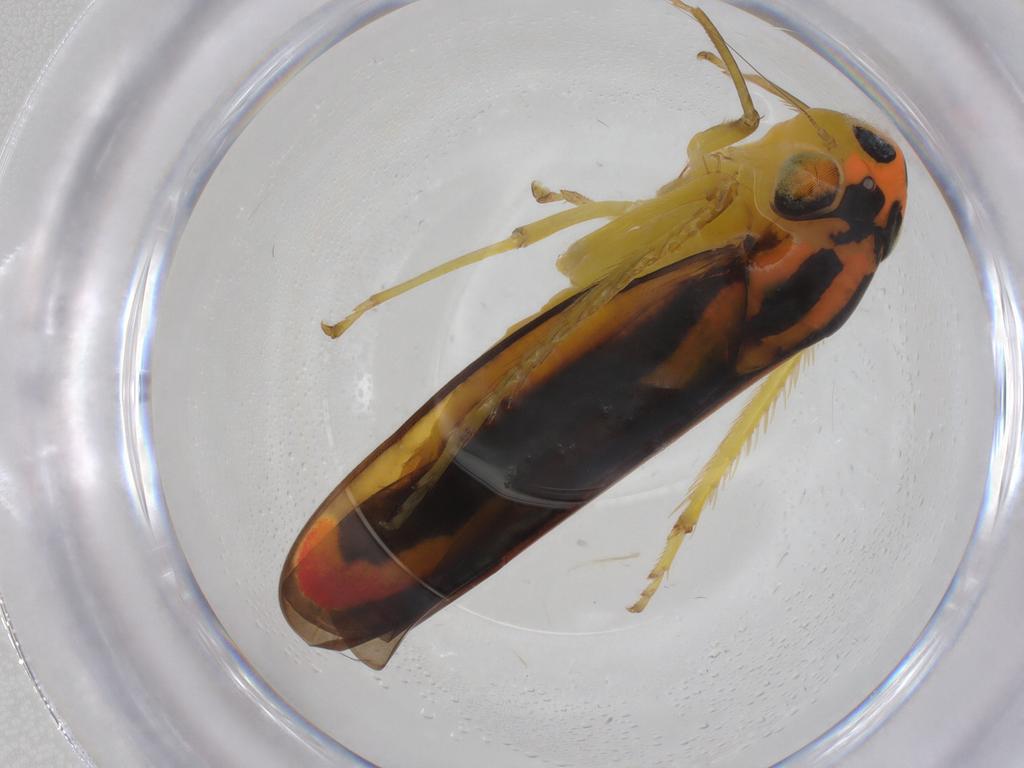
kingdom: Animalia
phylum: Arthropoda
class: Insecta
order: Hemiptera
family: Cicadellidae
